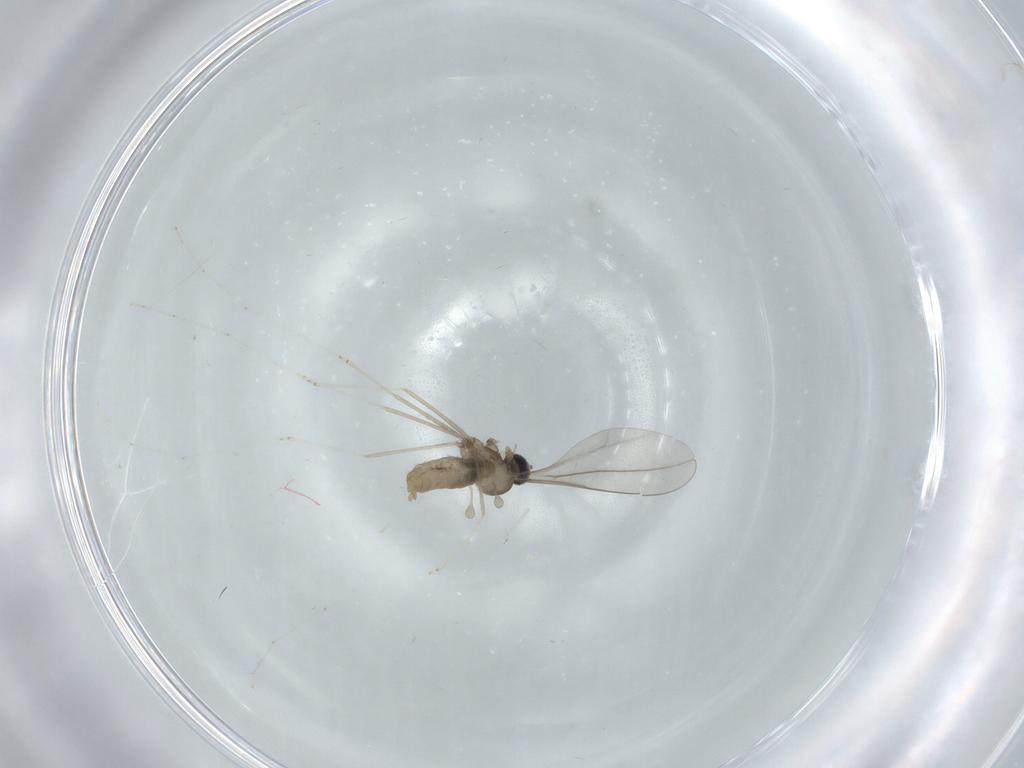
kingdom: Animalia
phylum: Arthropoda
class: Insecta
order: Diptera
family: Cecidomyiidae
